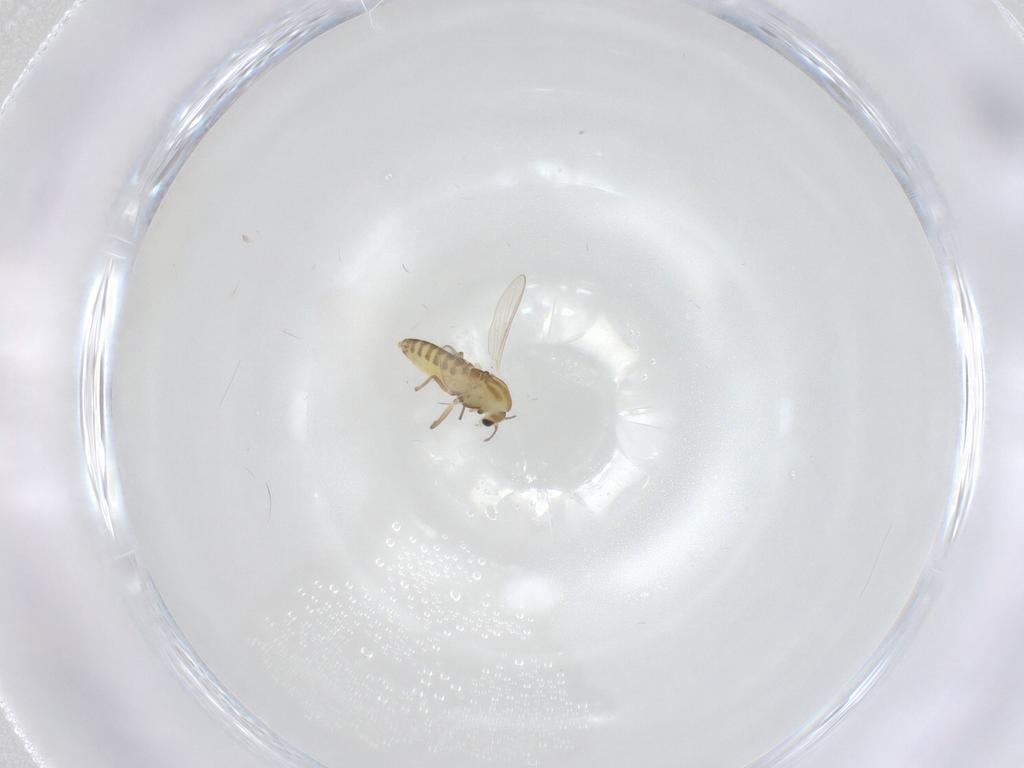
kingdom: Animalia
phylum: Arthropoda
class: Insecta
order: Diptera
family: Chironomidae
